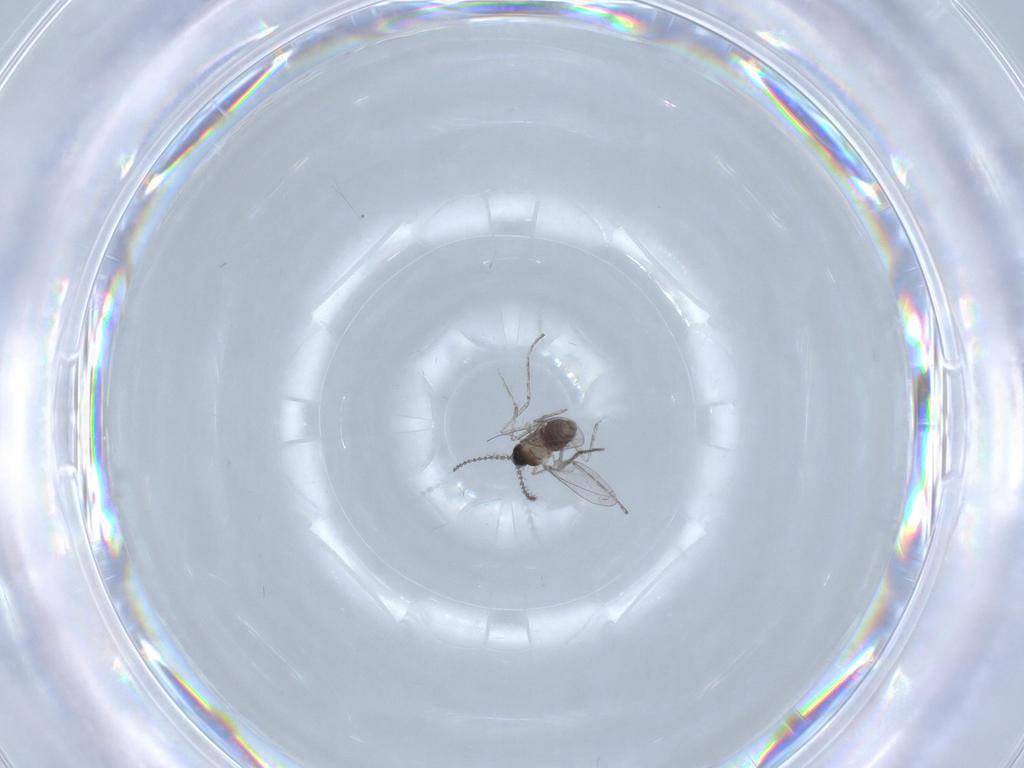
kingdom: Animalia
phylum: Arthropoda
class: Insecta
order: Diptera
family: Cecidomyiidae
